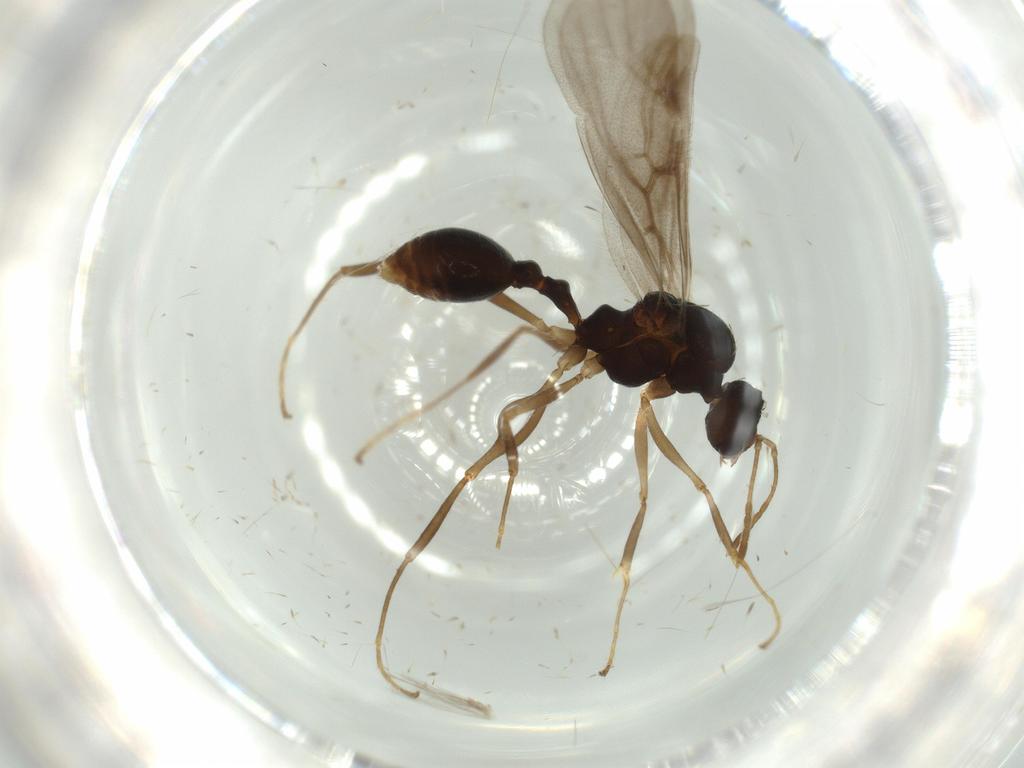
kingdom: Animalia
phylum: Arthropoda
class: Insecta
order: Hymenoptera
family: Formicidae
